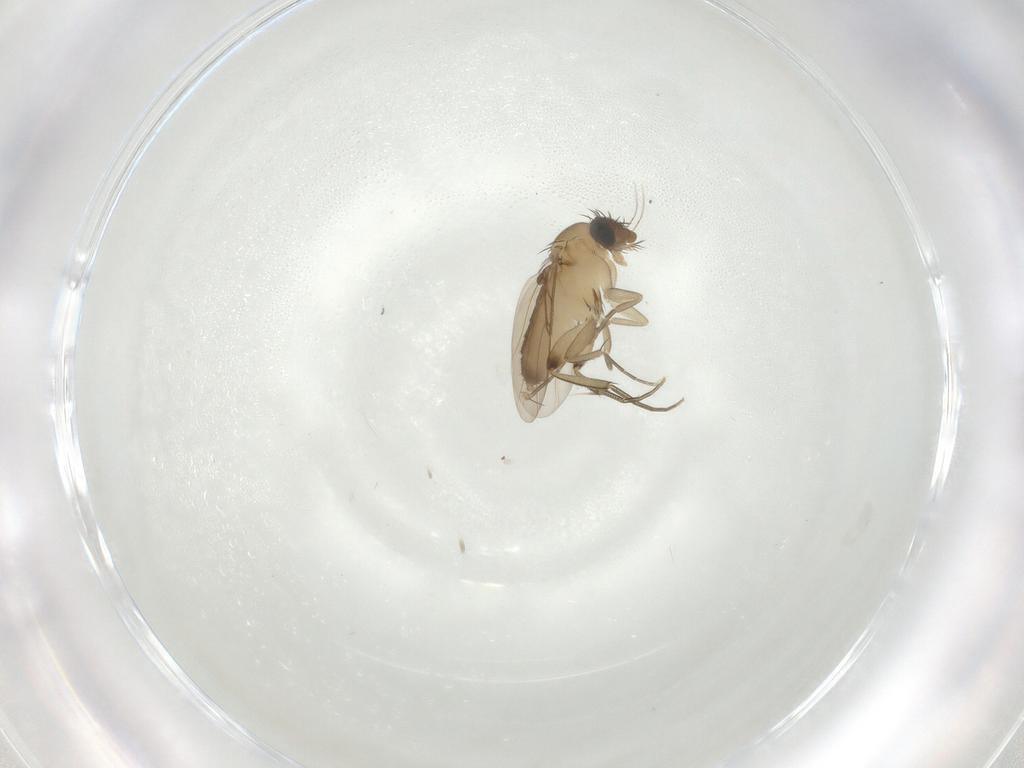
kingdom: Animalia
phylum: Arthropoda
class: Insecta
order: Diptera
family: Phoridae
